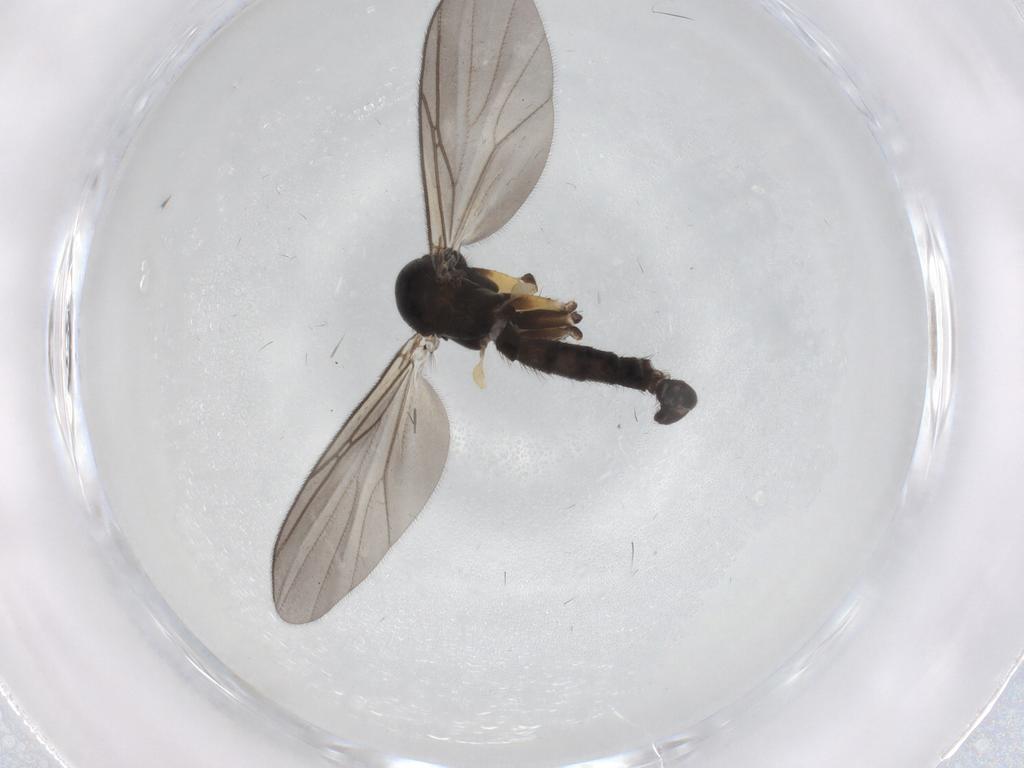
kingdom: Animalia
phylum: Arthropoda
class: Insecta
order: Diptera
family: Mycetophilidae
